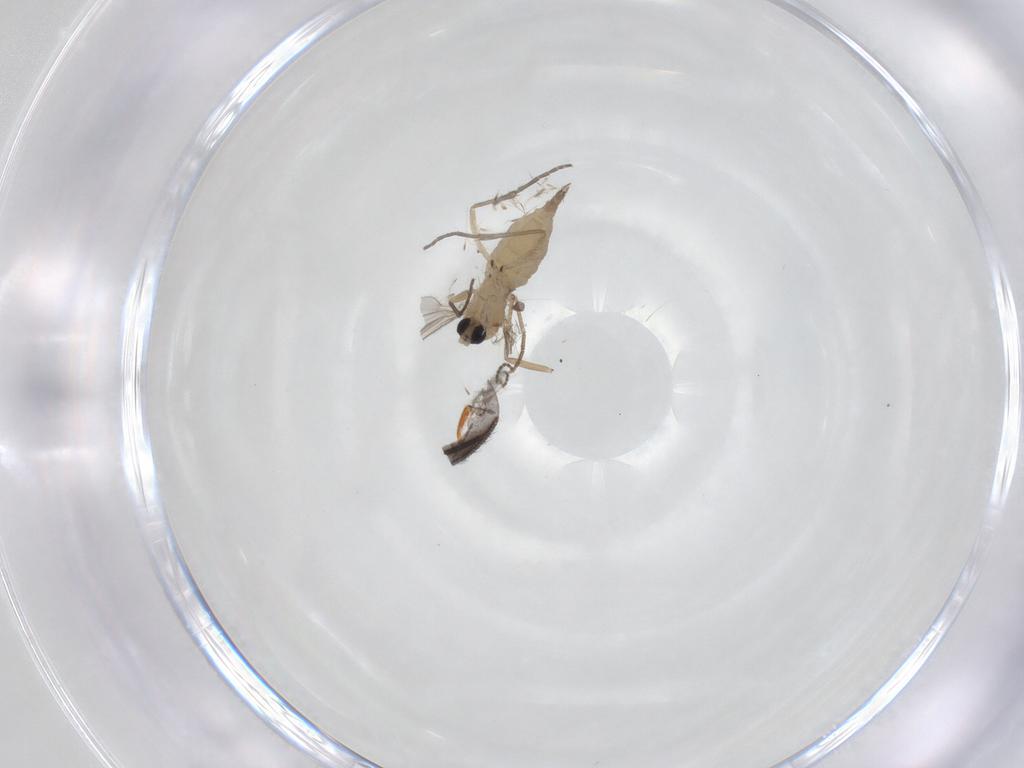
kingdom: Animalia
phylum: Arthropoda
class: Insecta
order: Diptera
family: Sciaridae
